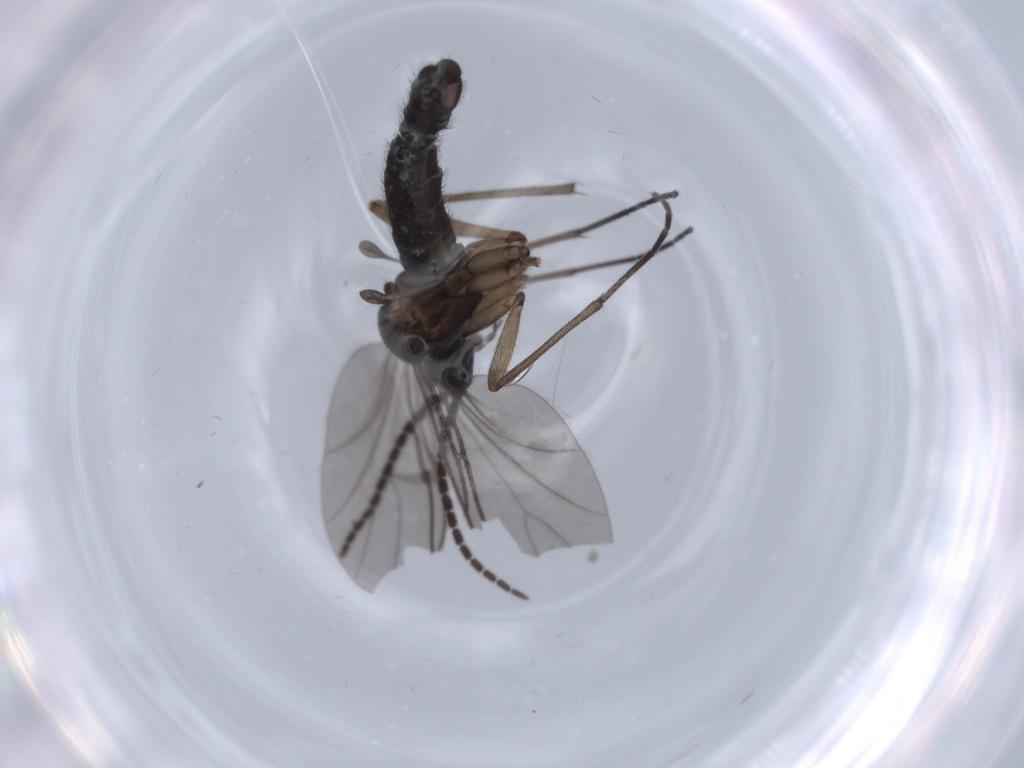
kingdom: Animalia
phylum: Arthropoda
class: Insecta
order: Diptera
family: Sciaridae
